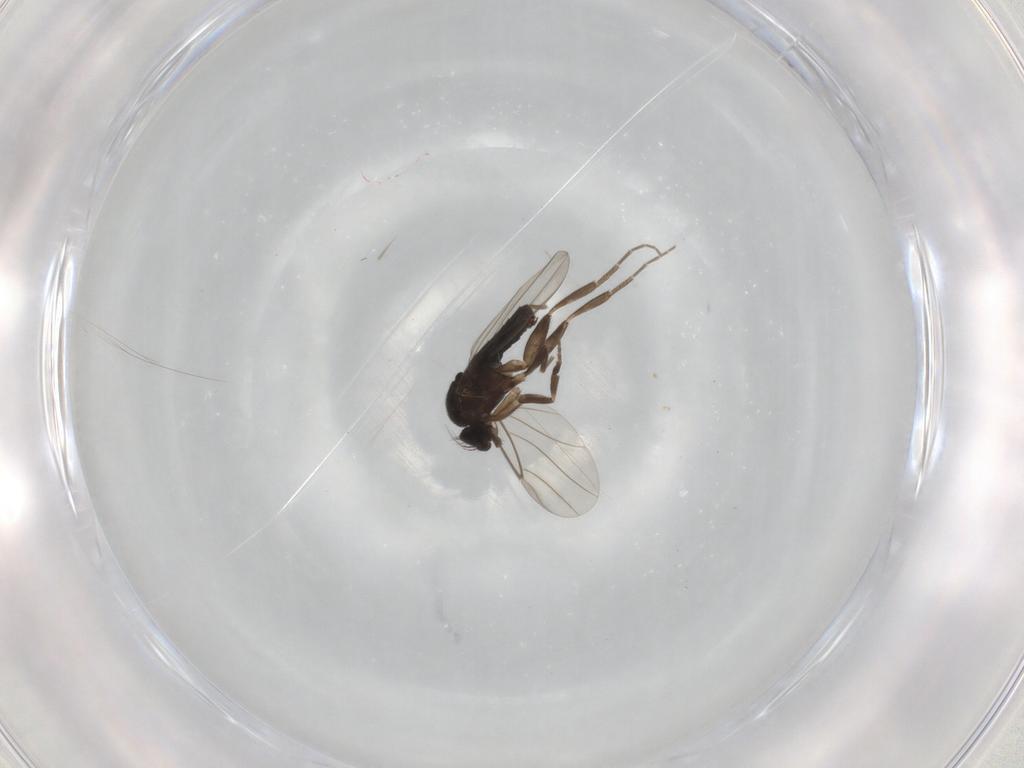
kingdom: Animalia
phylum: Arthropoda
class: Insecta
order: Diptera
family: Phoridae
